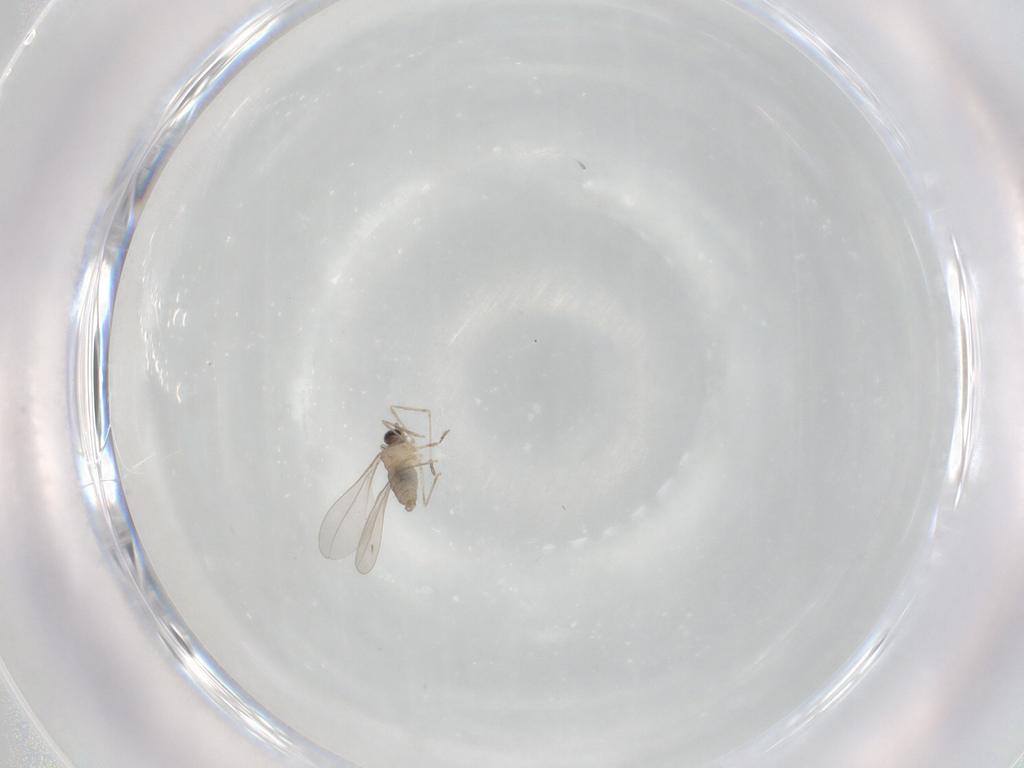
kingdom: Animalia
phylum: Arthropoda
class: Insecta
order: Diptera
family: Cecidomyiidae
